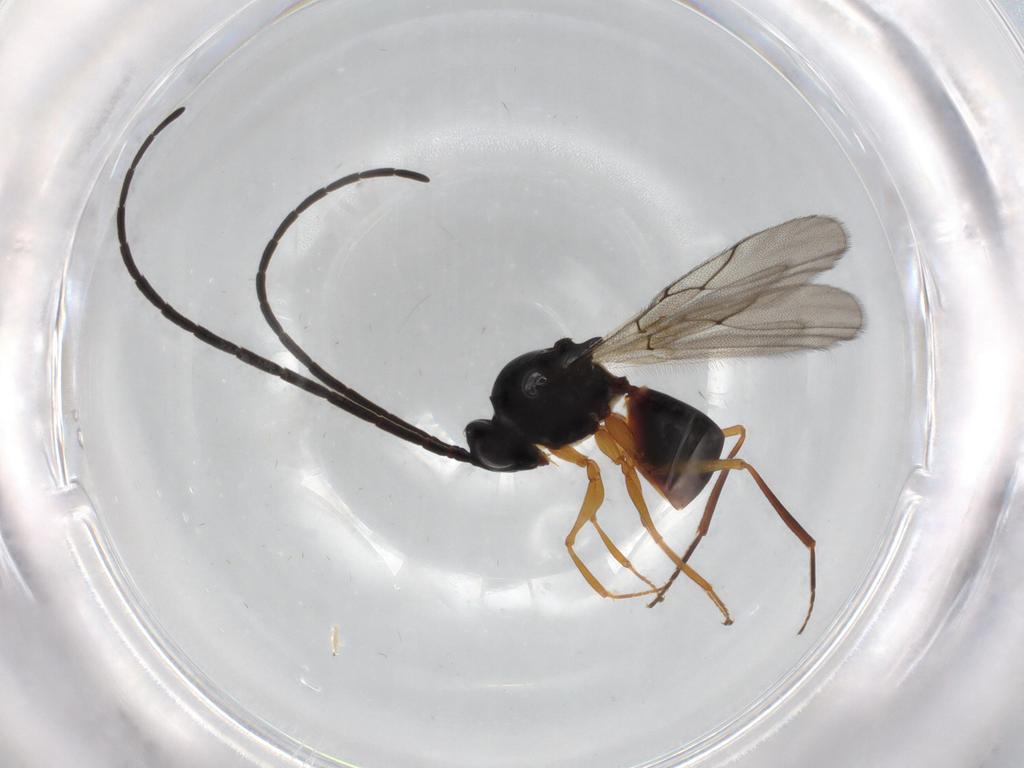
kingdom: Animalia
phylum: Arthropoda
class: Insecta
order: Hymenoptera
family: Figitidae
